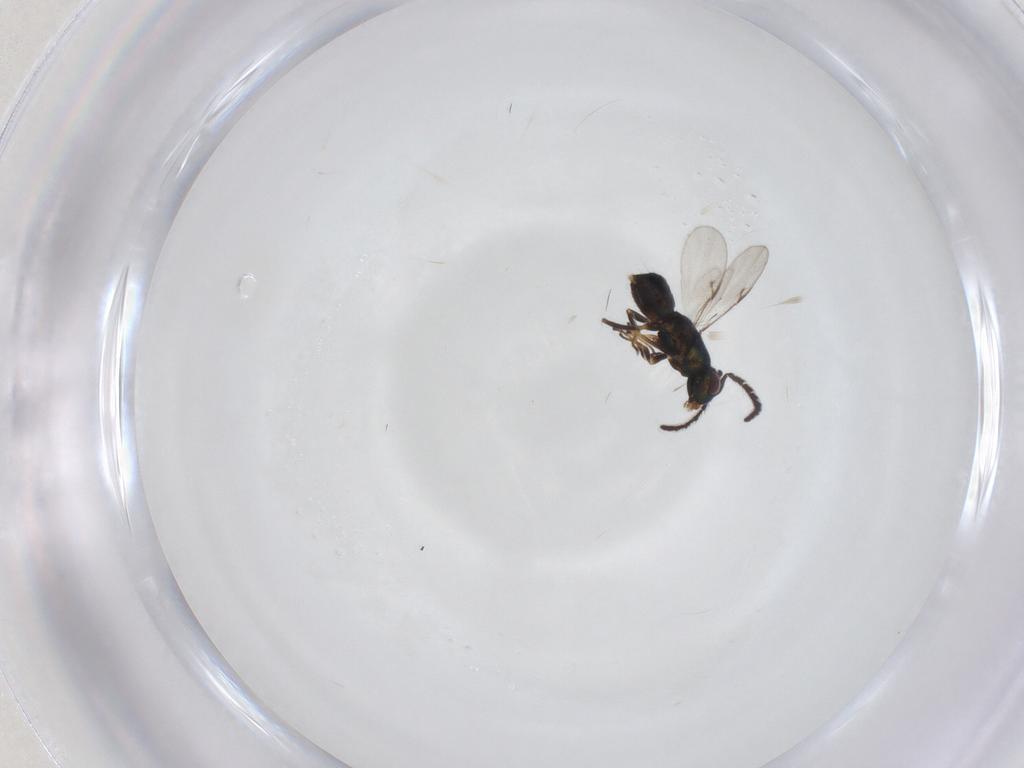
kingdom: Animalia
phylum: Arthropoda
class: Insecta
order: Hymenoptera
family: Encyrtidae
